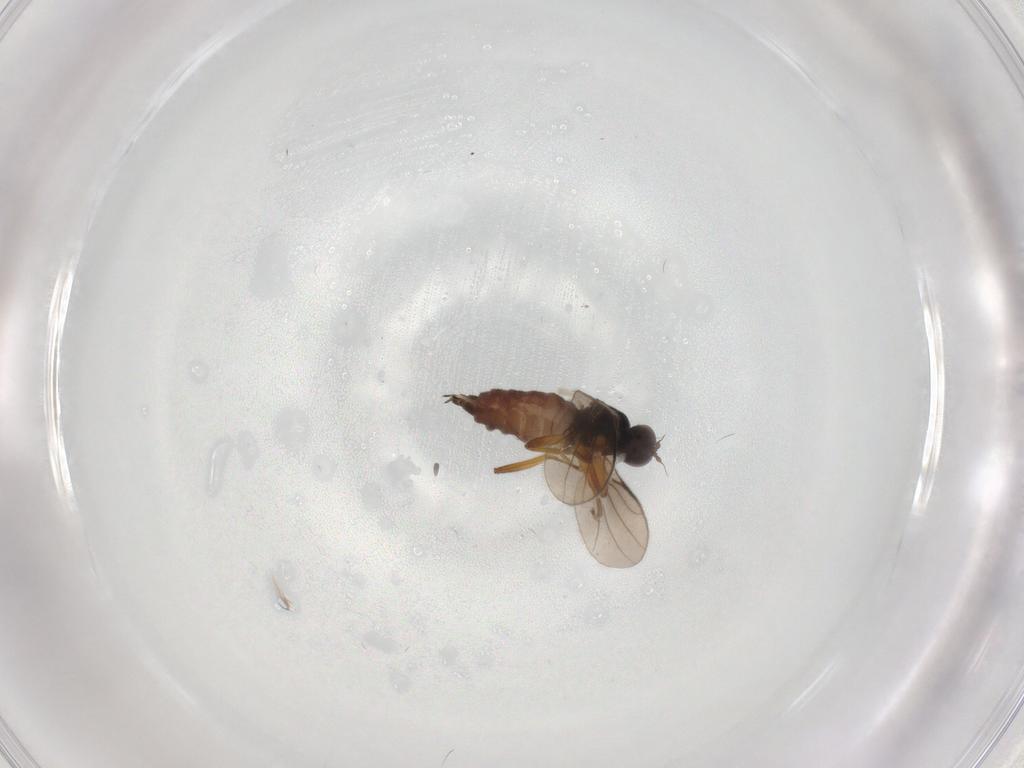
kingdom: Animalia
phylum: Arthropoda
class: Insecta
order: Diptera
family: Hybotidae
